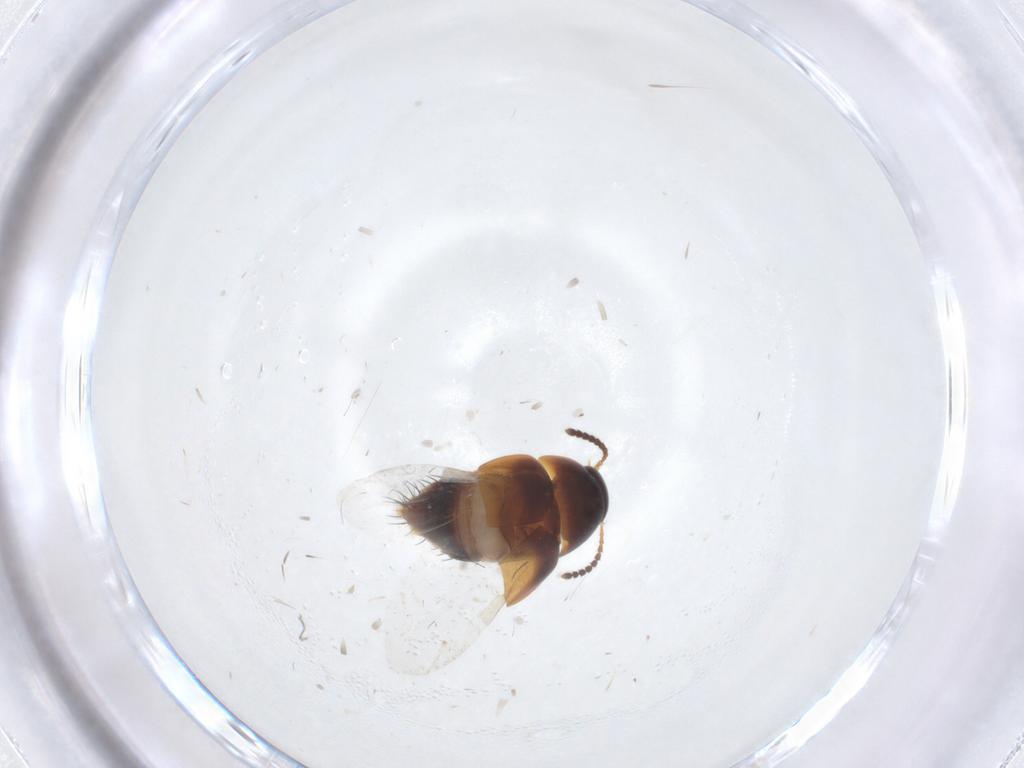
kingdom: Animalia
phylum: Arthropoda
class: Insecta
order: Coleoptera
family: Staphylinidae
